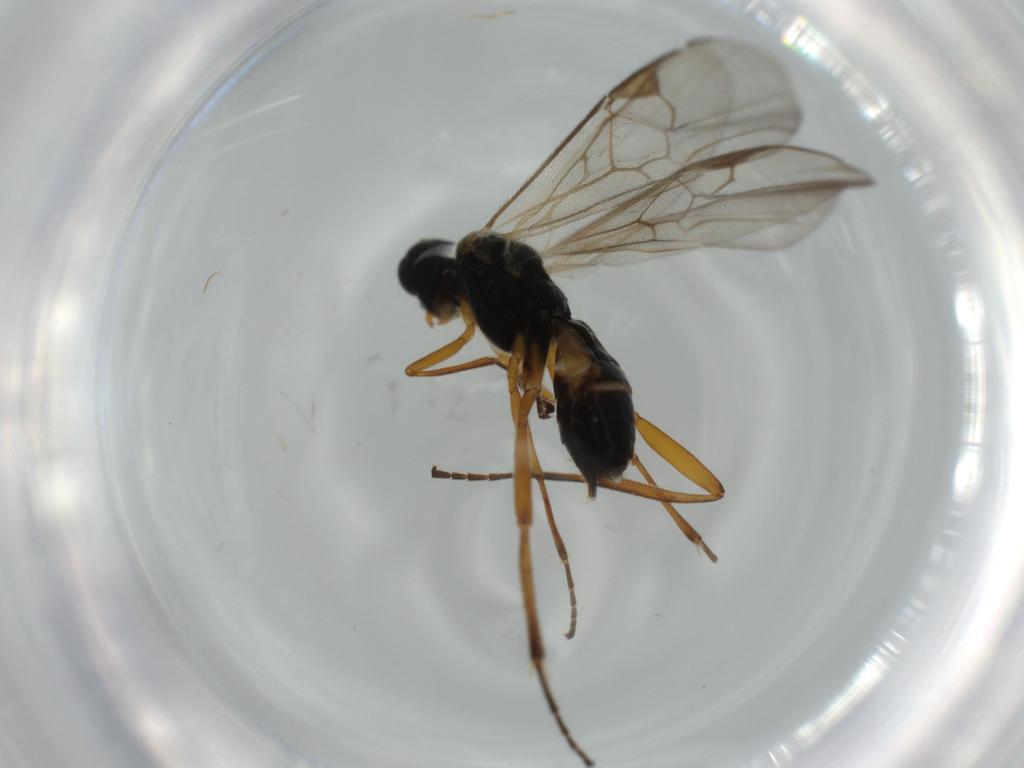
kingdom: Animalia
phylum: Arthropoda
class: Insecta
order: Hymenoptera
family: Braconidae
